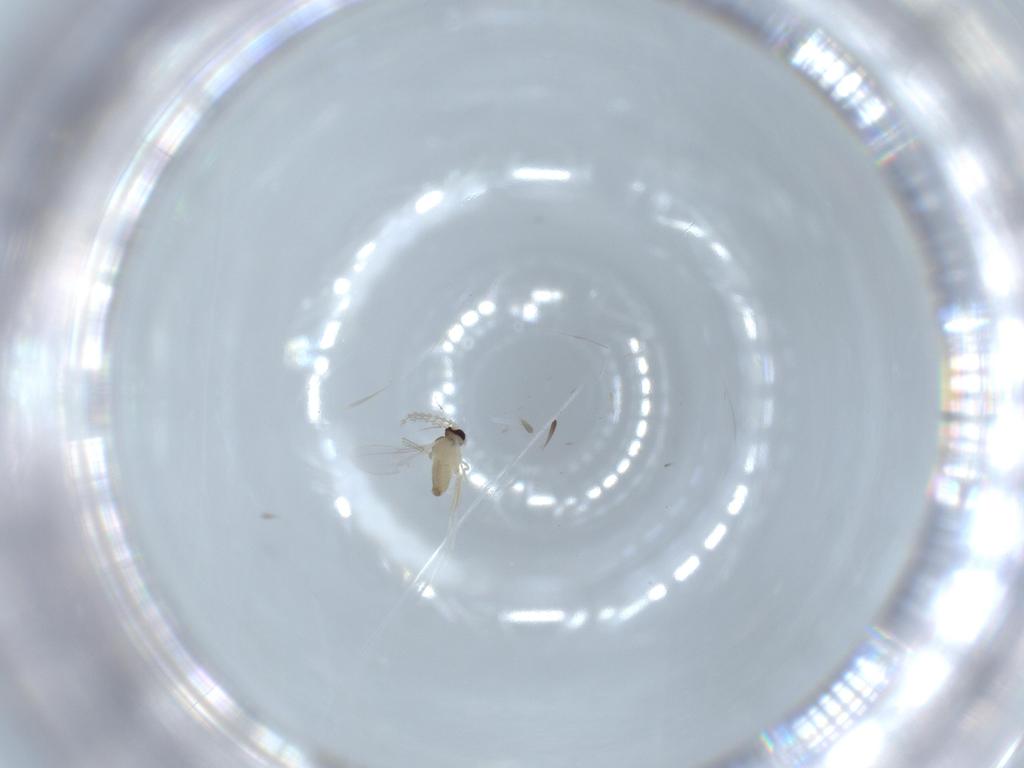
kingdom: Animalia
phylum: Arthropoda
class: Insecta
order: Diptera
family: Cecidomyiidae
